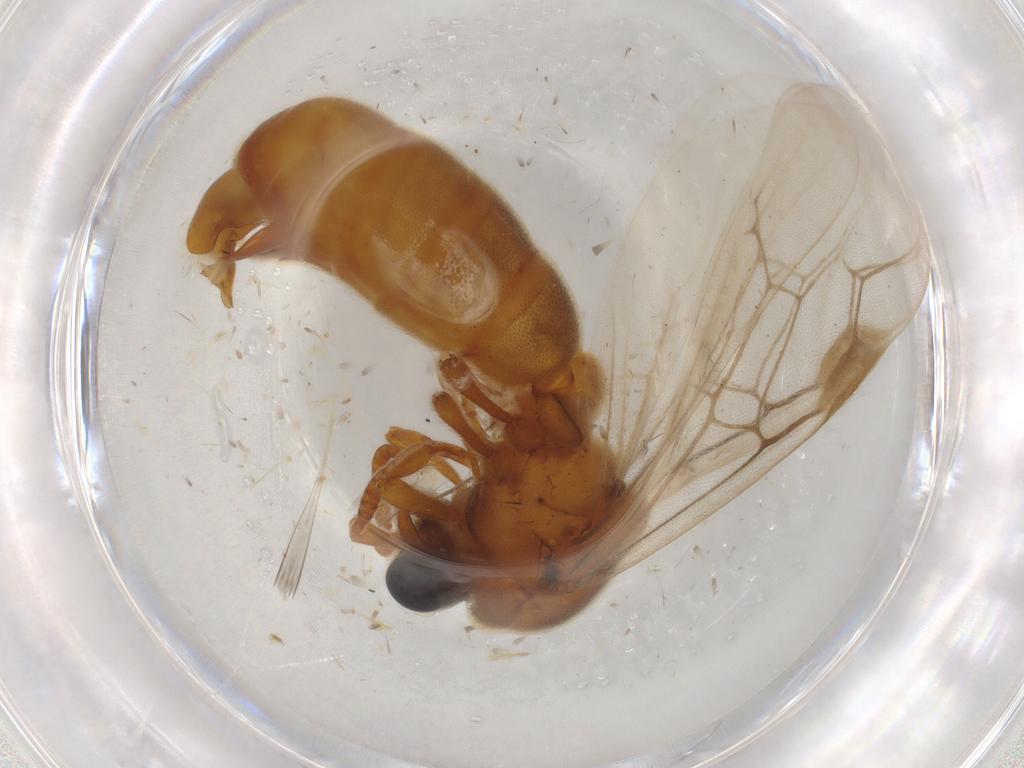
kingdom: Animalia
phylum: Arthropoda
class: Insecta
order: Hymenoptera
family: Formicidae
